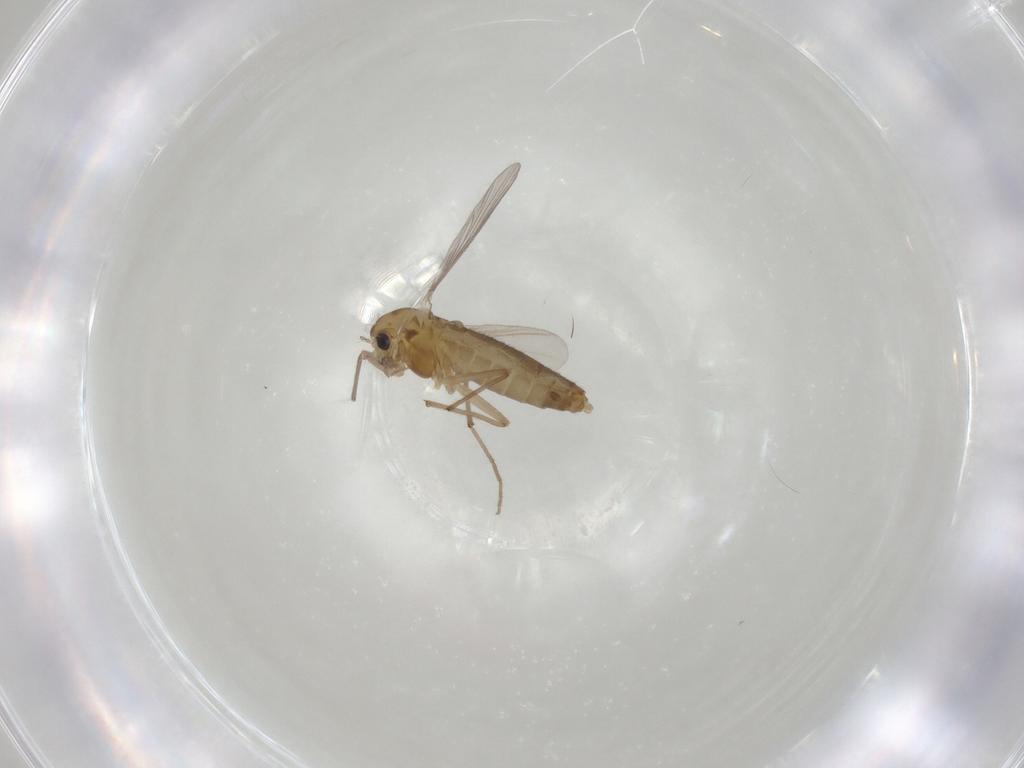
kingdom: Animalia
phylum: Arthropoda
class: Insecta
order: Diptera
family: Chironomidae
